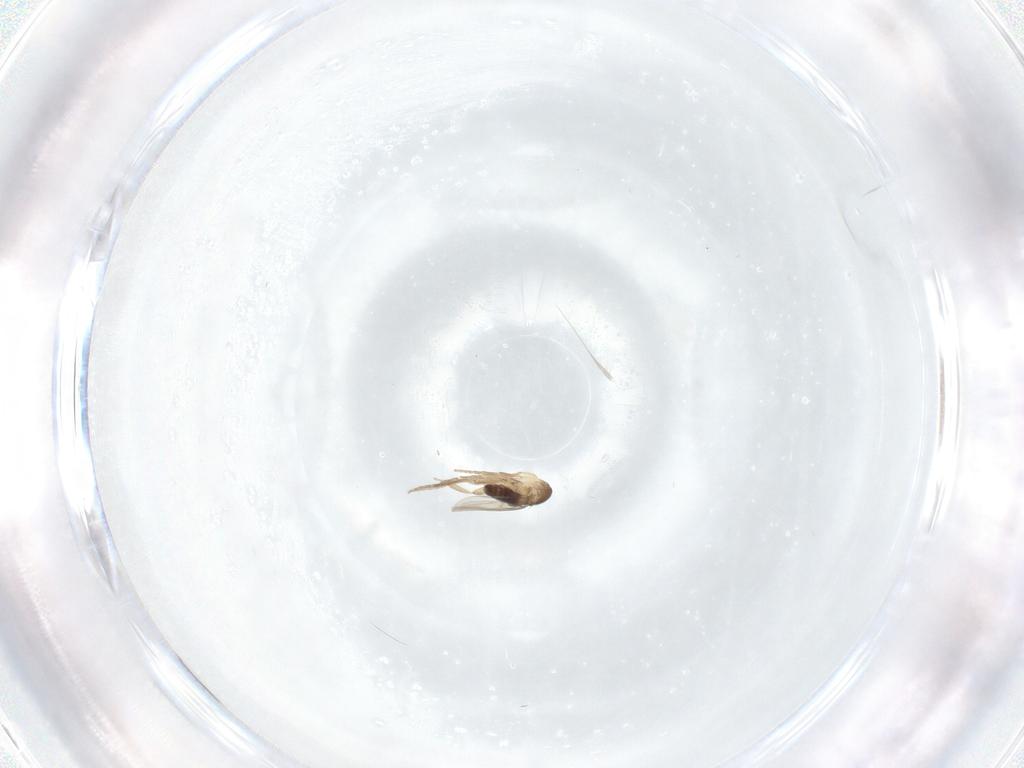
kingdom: Animalia
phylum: Arthropoda
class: Insecta
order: Diptera
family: Phoridae
